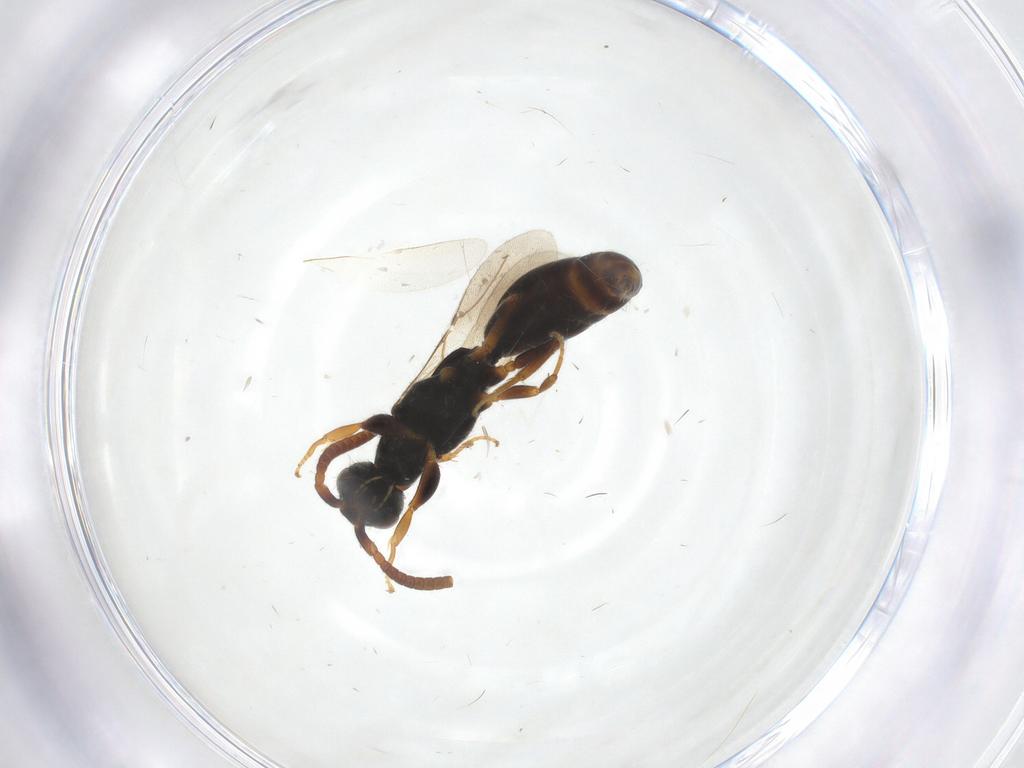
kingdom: Animalia
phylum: Arthropoda
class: Insecta
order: Hymenoptera
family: Bethylidae
